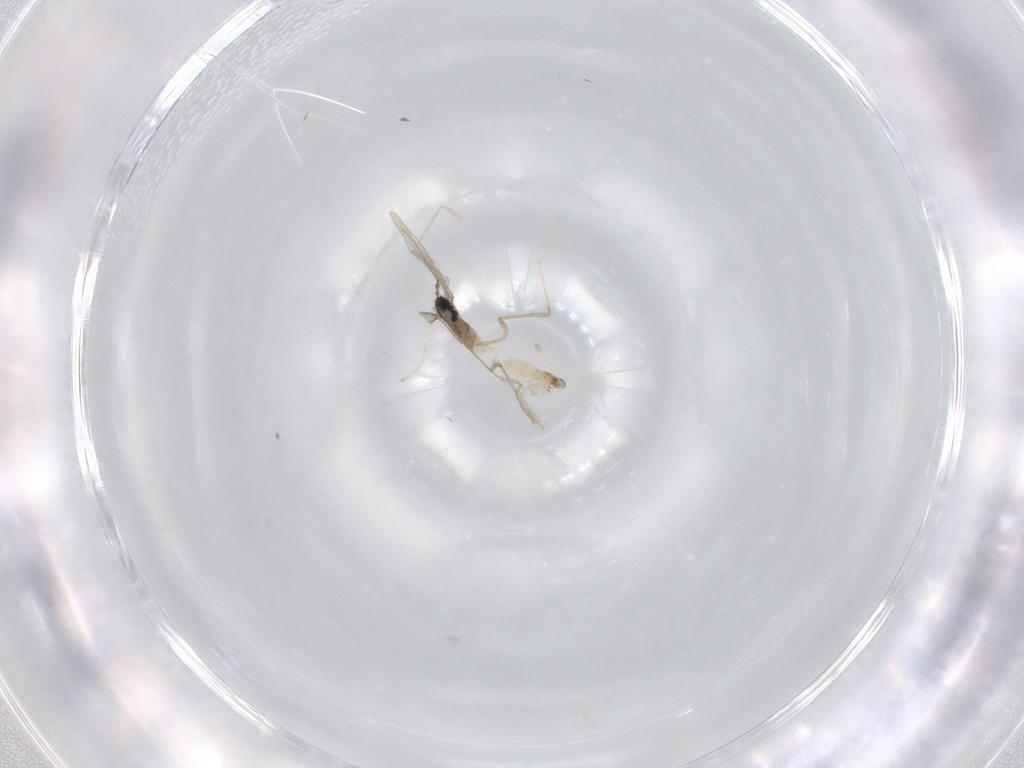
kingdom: Animalia
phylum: Arthropoda
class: Insecta
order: Diptera
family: Cecidomyiidae
